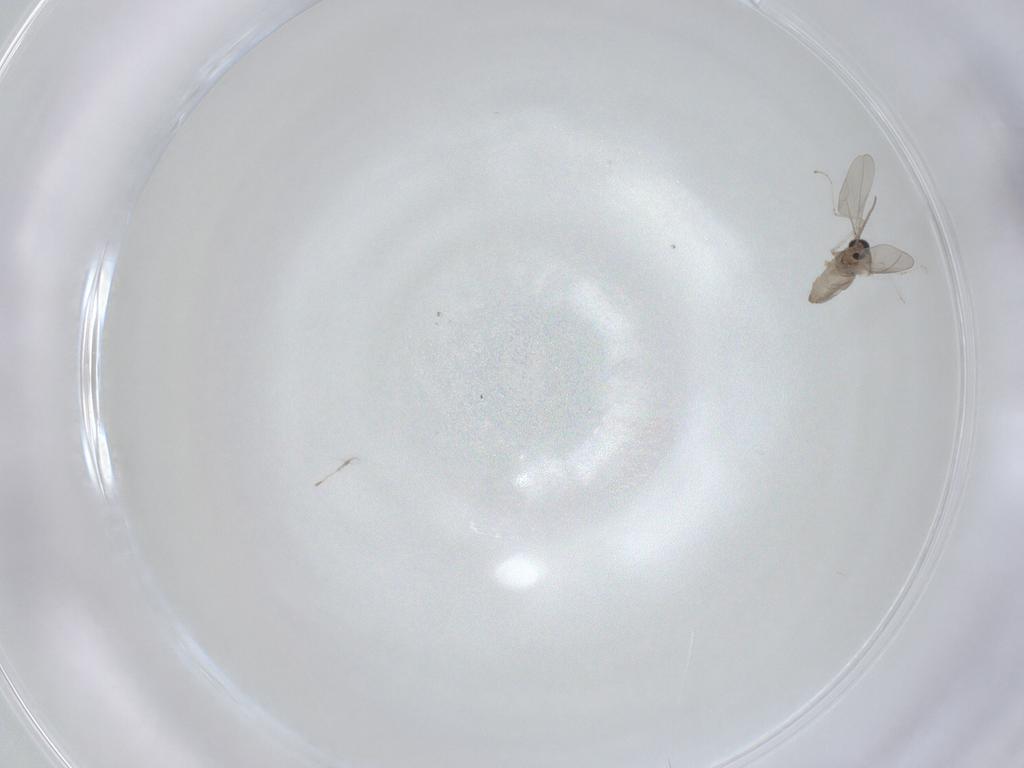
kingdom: Animalia
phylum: Arthropoda
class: Insecta
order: Diptera
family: Cecidomyiidae
